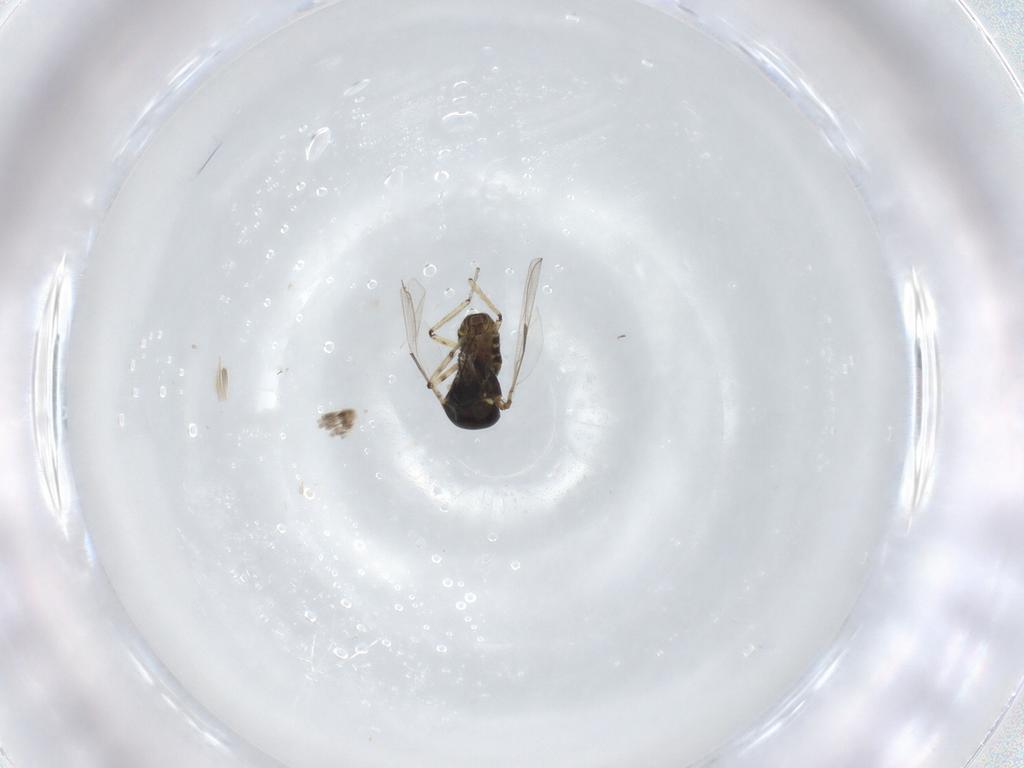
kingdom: Animalia
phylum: Arthropoda
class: Insecta
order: Diptera
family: Ceratopogonidae
